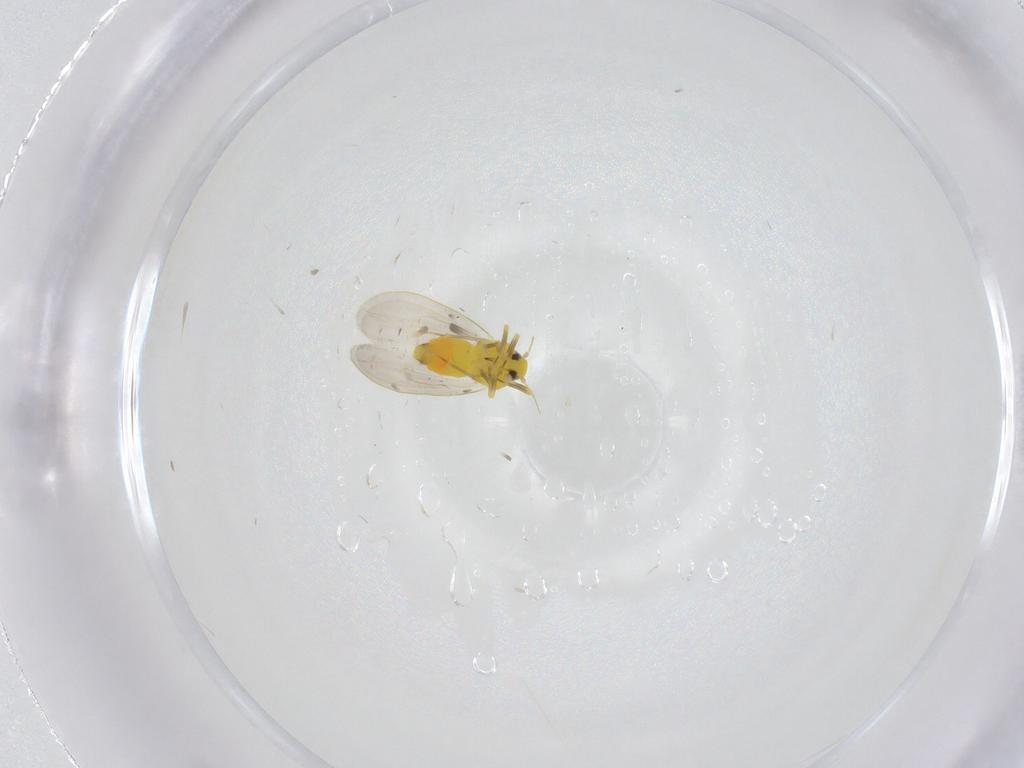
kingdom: Animalia
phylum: Arthropoda
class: Insecta
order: Hemiptera
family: Aleyrodidae
